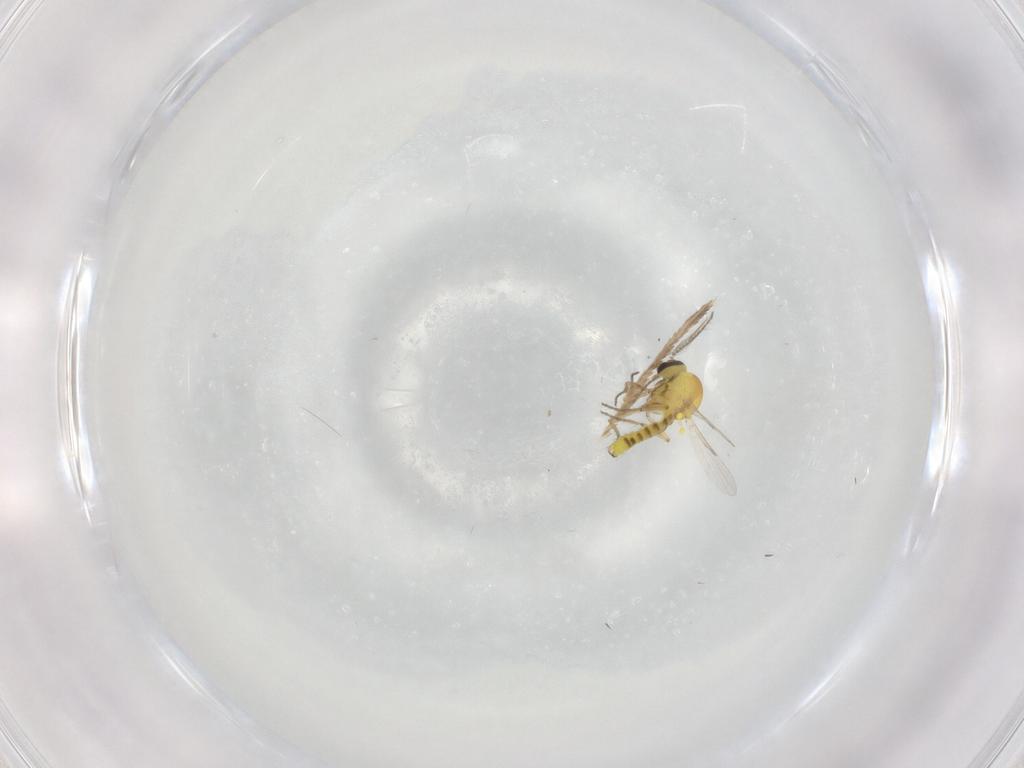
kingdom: Animalia
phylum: Arthropoda
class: Insecta
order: Diptera
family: Ceratopogonidae
